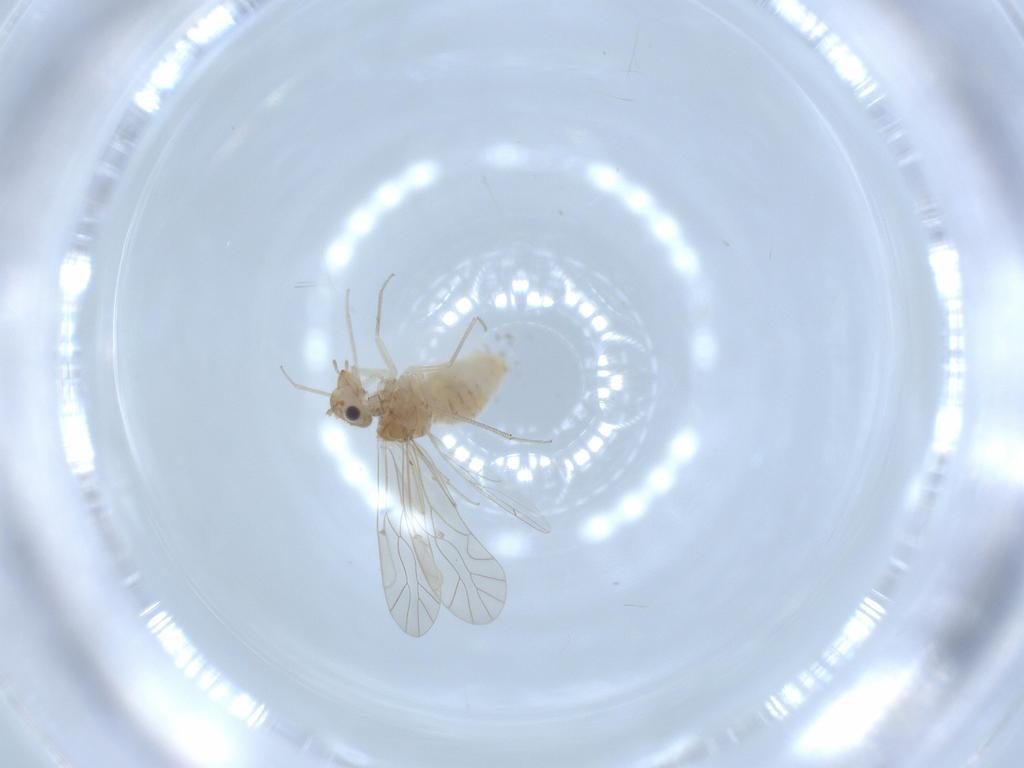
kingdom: Animalia
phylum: Arthropoda
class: Insecta
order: Psocodea
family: Lachesillidae
